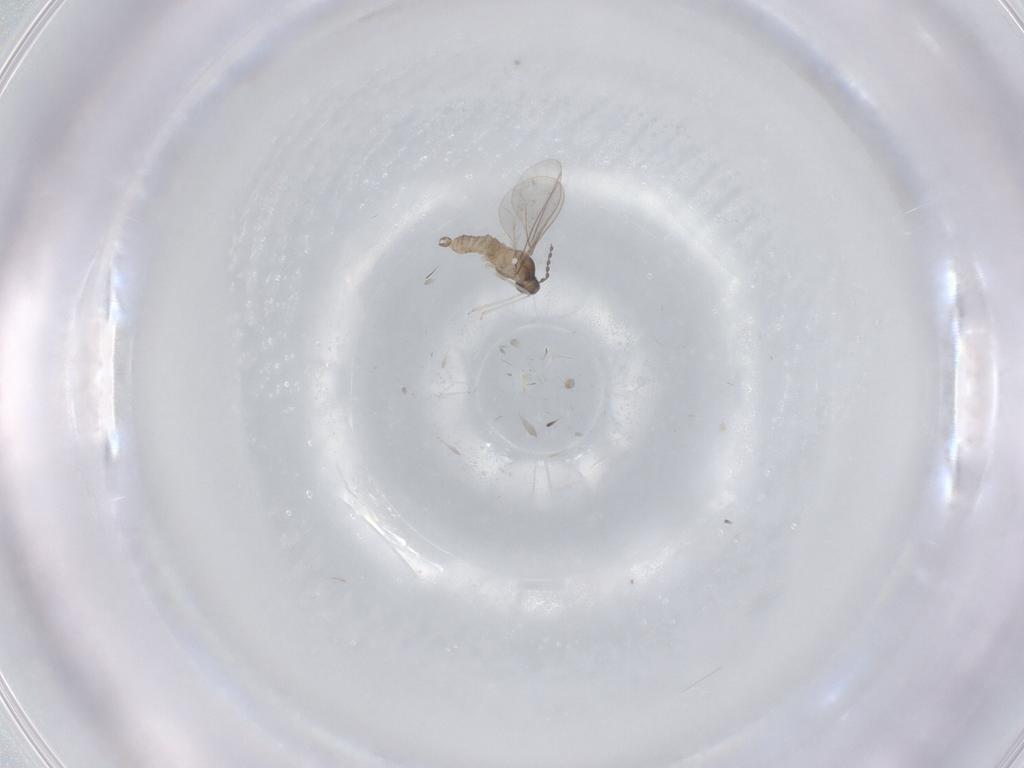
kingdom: Animalia
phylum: Arthropoda
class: Insecta
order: Diptera
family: Cecidomyiidae
